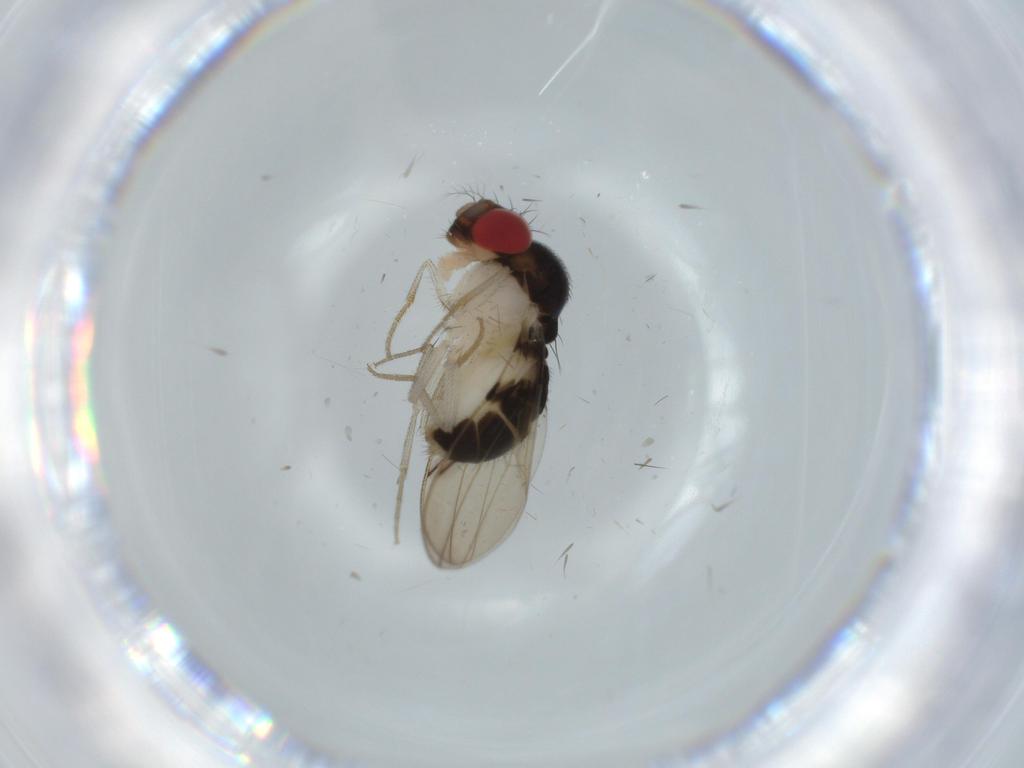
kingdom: Animalia
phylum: Arthropoda
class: Insecta
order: Diptera
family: Drosophilidae
